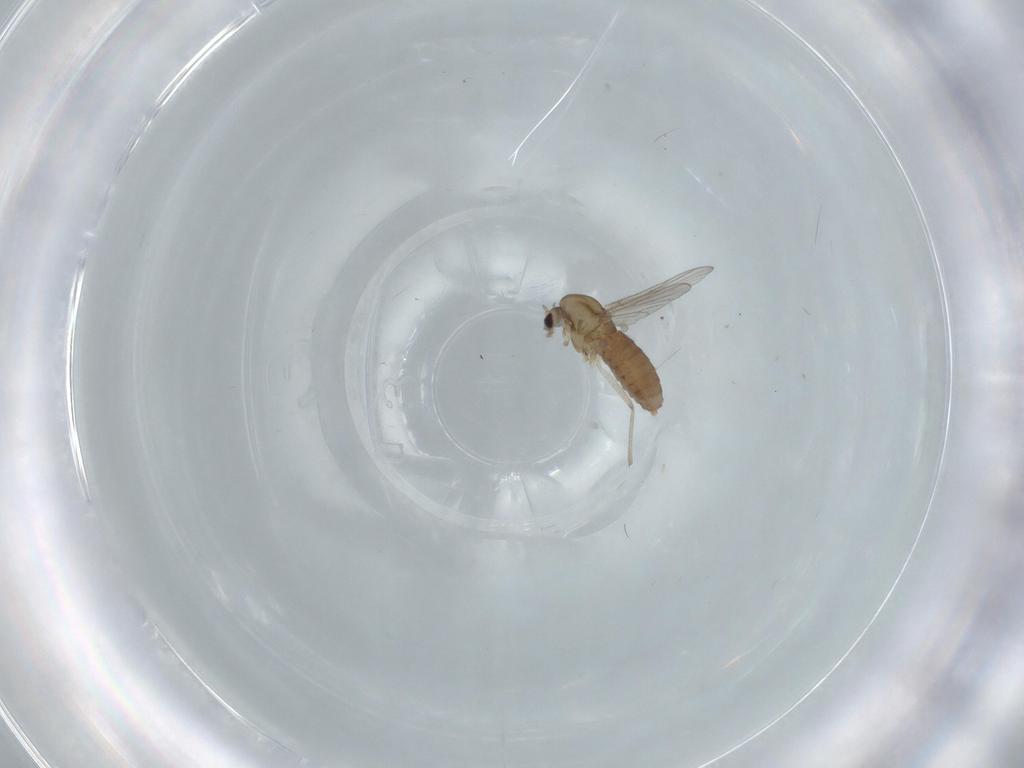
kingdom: Animalia
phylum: Arthropoda
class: Insecta
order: Diptera
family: Chironomidae
